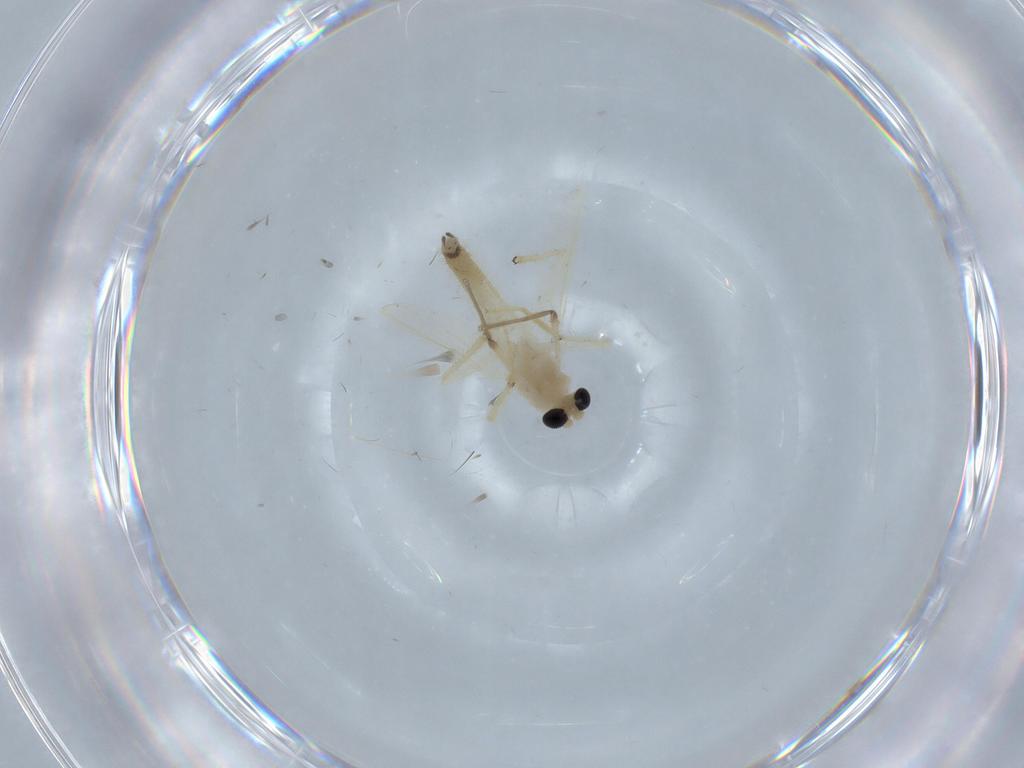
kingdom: Animalia
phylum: Arthropoda
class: Insecta
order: Diptera
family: Chironomidae
